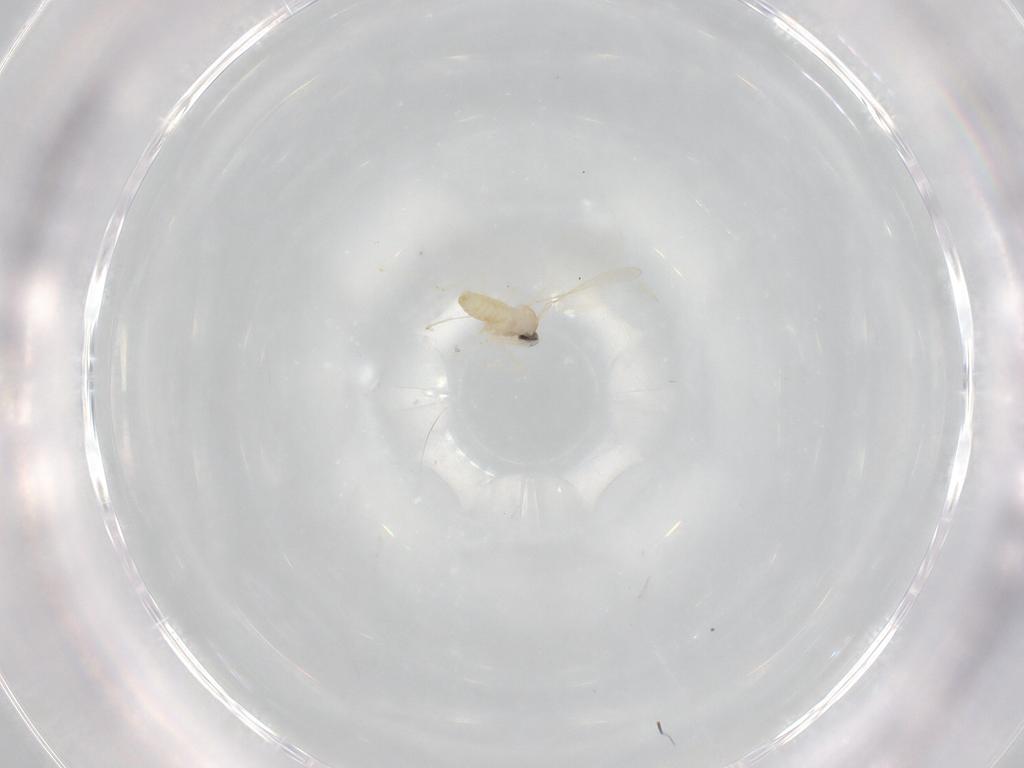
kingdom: Animalia
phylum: Arthropoda
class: Insecta
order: Diptera
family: Cecidomyiidae
